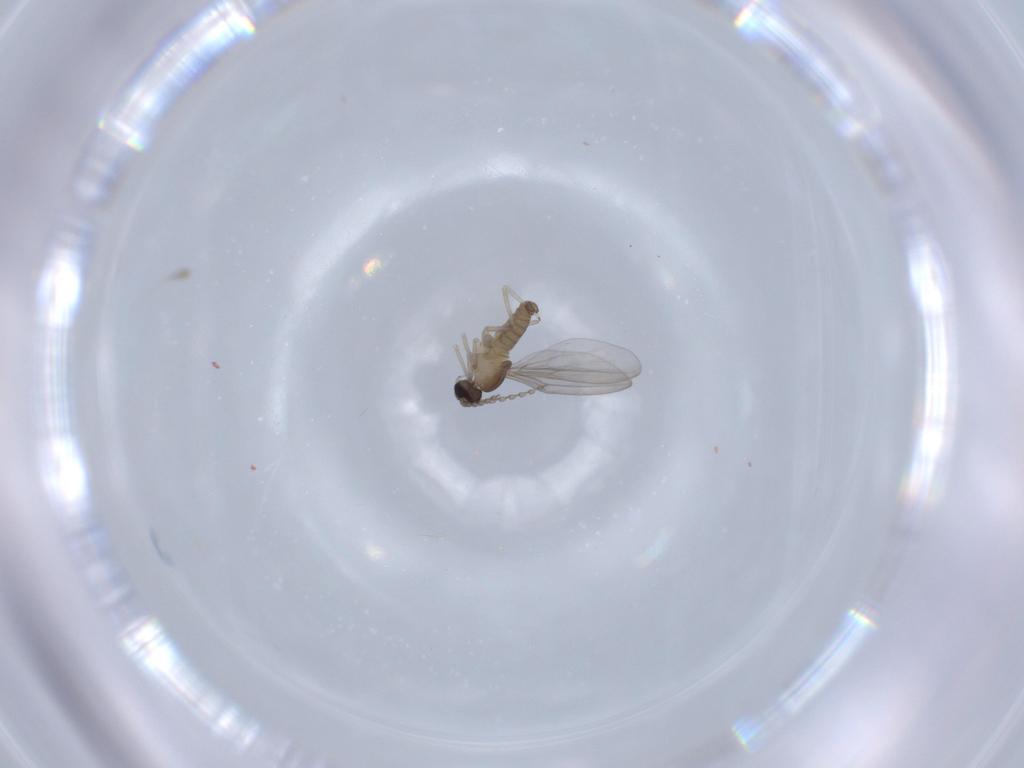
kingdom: Animalia
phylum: Arthropoda
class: Insecta
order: Diptera
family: Cecidomyiidae
